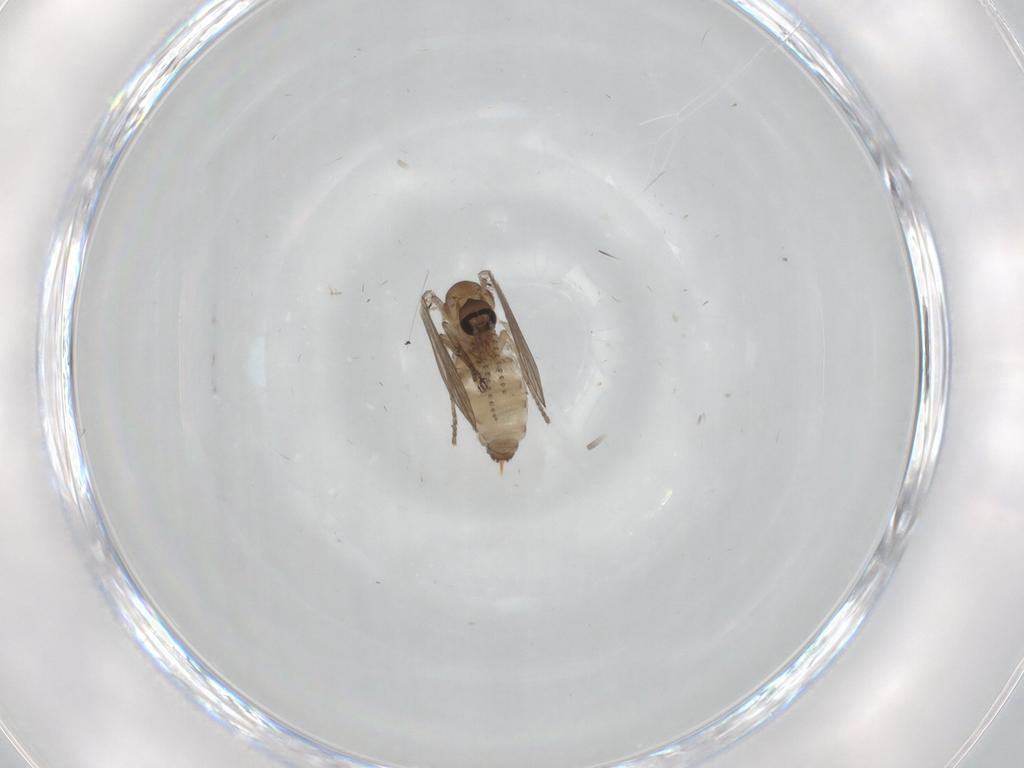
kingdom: Animalia
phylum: Arthropoda
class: Insecta
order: Diptera
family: Ceratopogonidae
